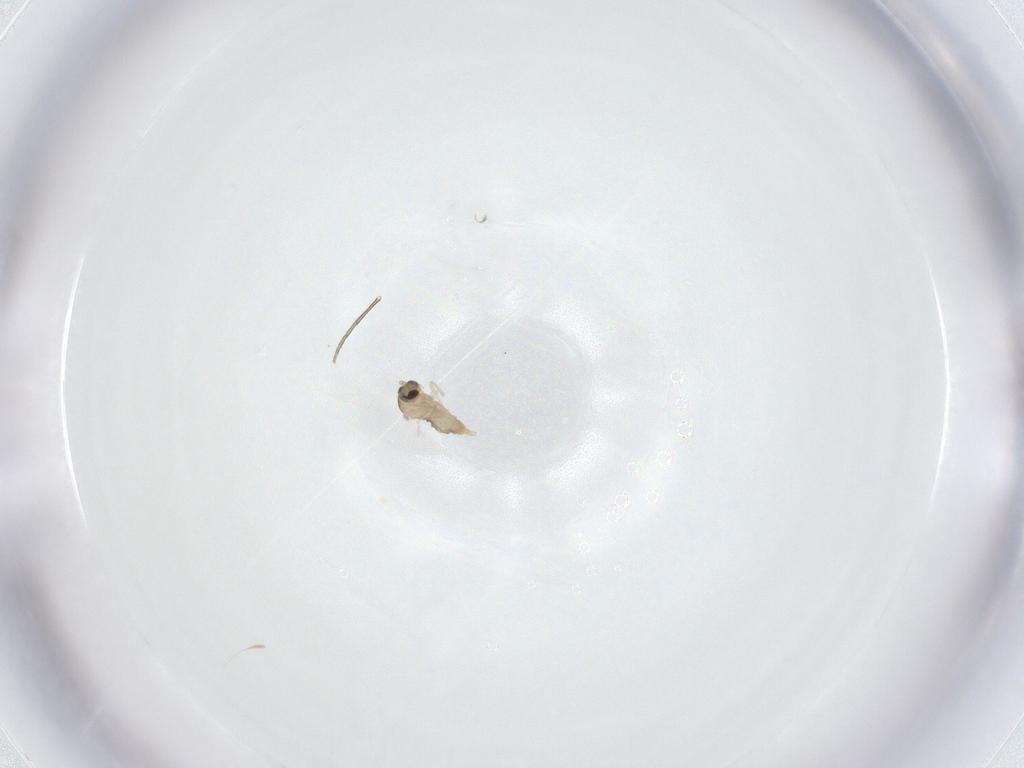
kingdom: Animalia
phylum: Arthropoda
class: Insecta
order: Diptera
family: Cecidomyiidae
